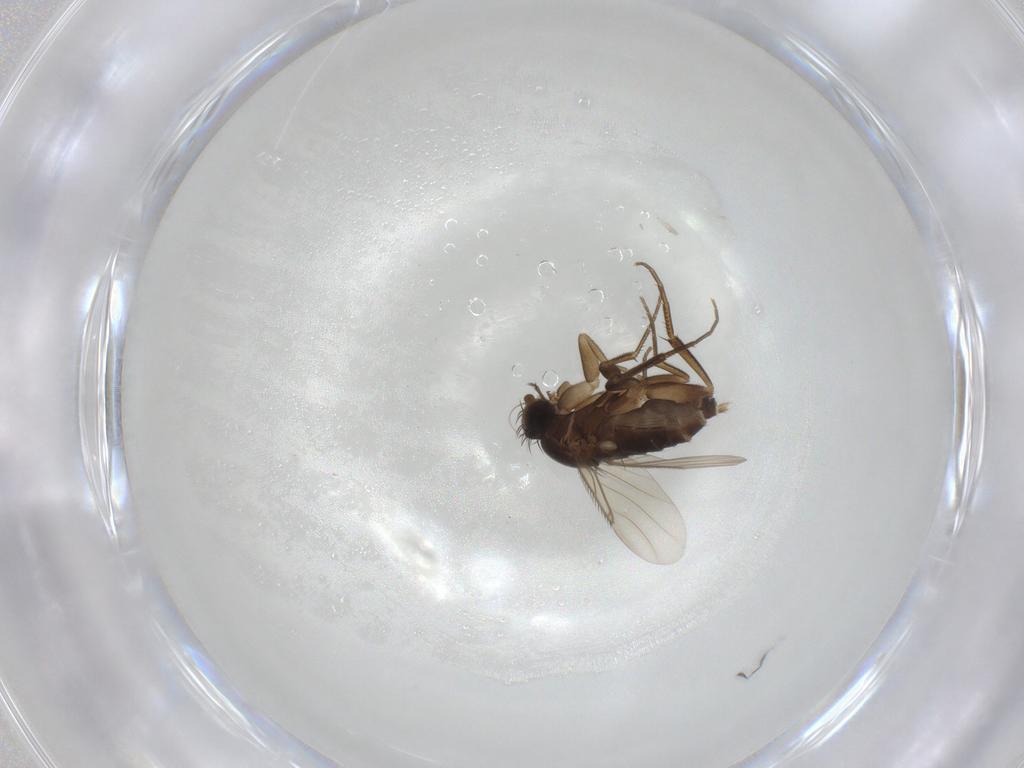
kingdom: Animalia
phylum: Arthropoda
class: Insecta
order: Diptera
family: Phoridae
